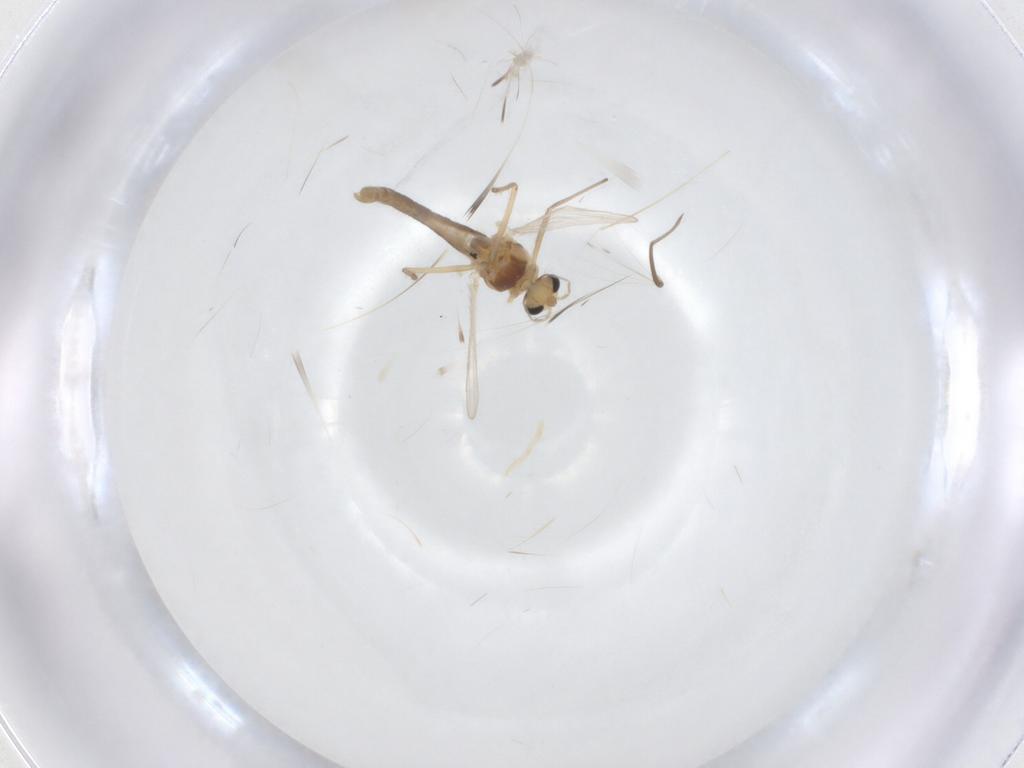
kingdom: Animalia
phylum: Arthropoda
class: Insecta
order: Diptera
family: Chironomidae
